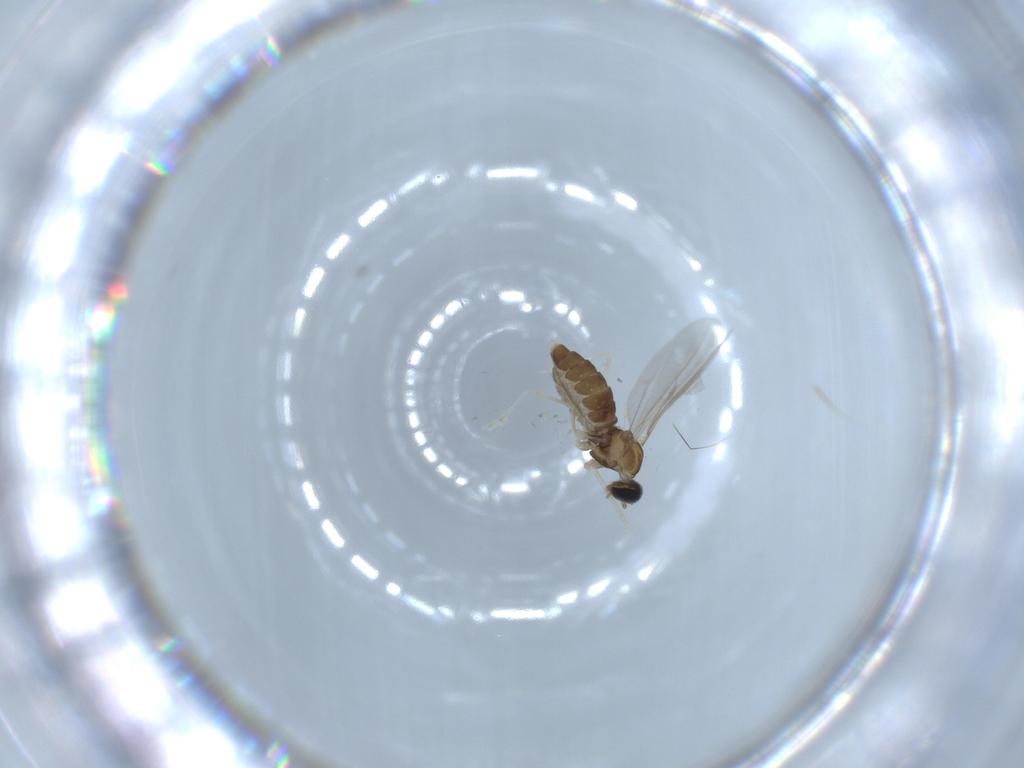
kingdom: Animalia
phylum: Arthropoda
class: Insecta
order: Diptera
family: Cecidomyiidae
